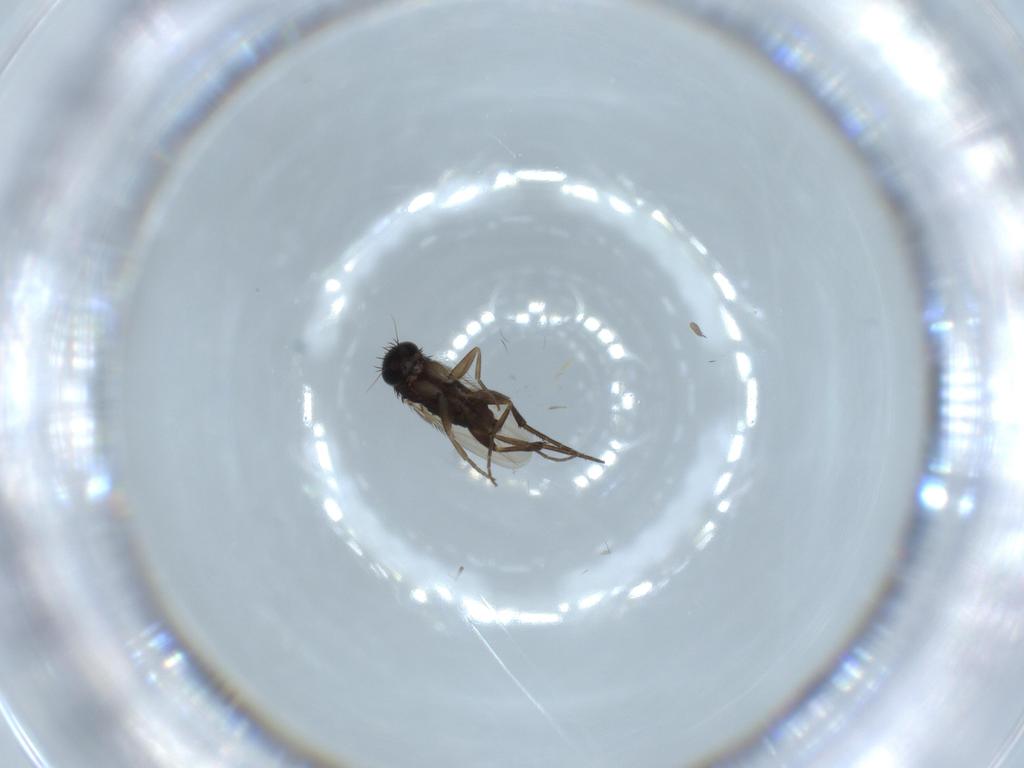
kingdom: Animalia
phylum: Arthropoda
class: Insecta
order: Diptera
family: Phoridae
